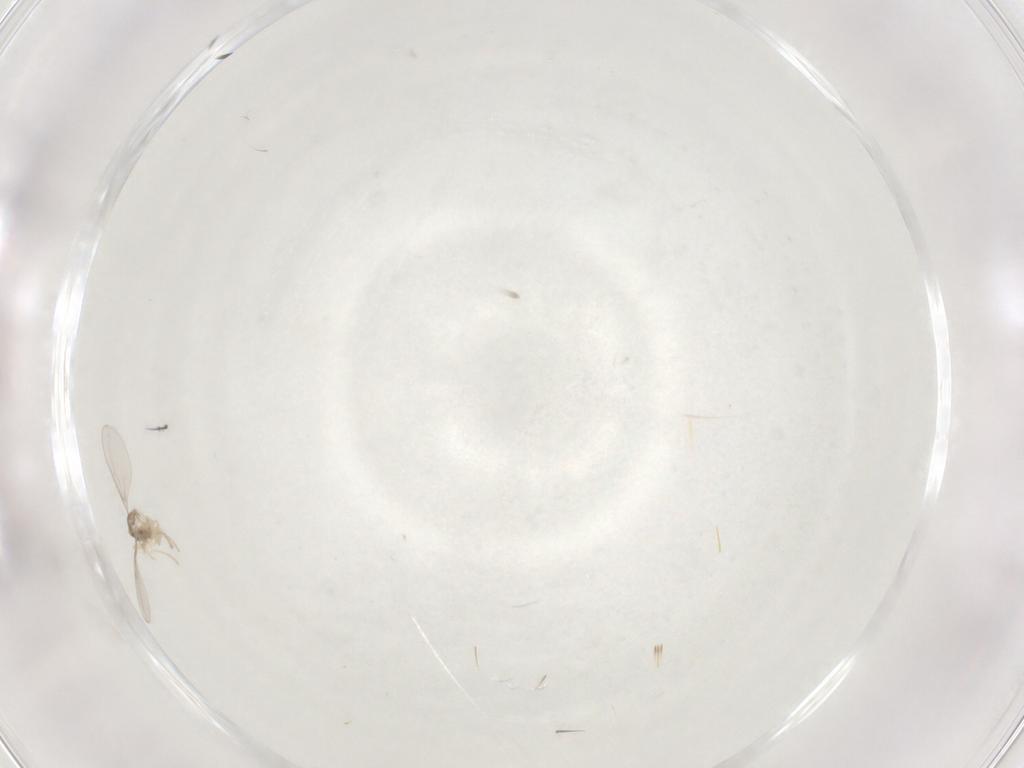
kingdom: Animalia
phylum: Arthropoda
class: Insecta
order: Diptera
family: Cecidomyiidae
